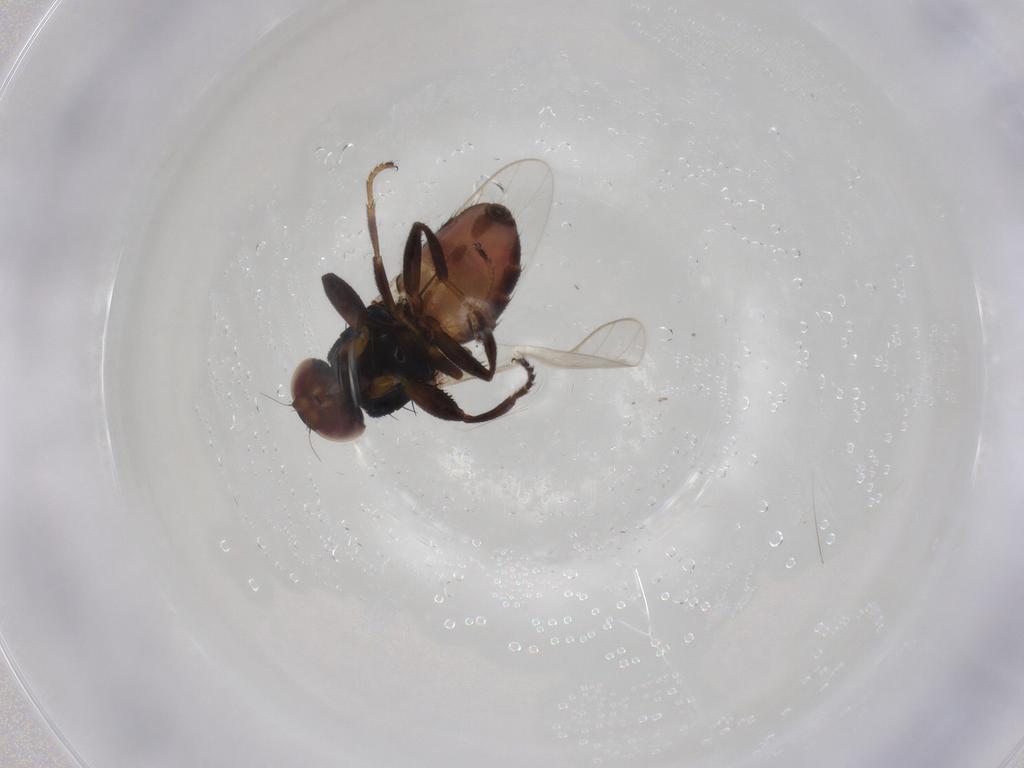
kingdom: Animalia
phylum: Arthropoda
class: Insecta
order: Diptera
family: Chloropidae
